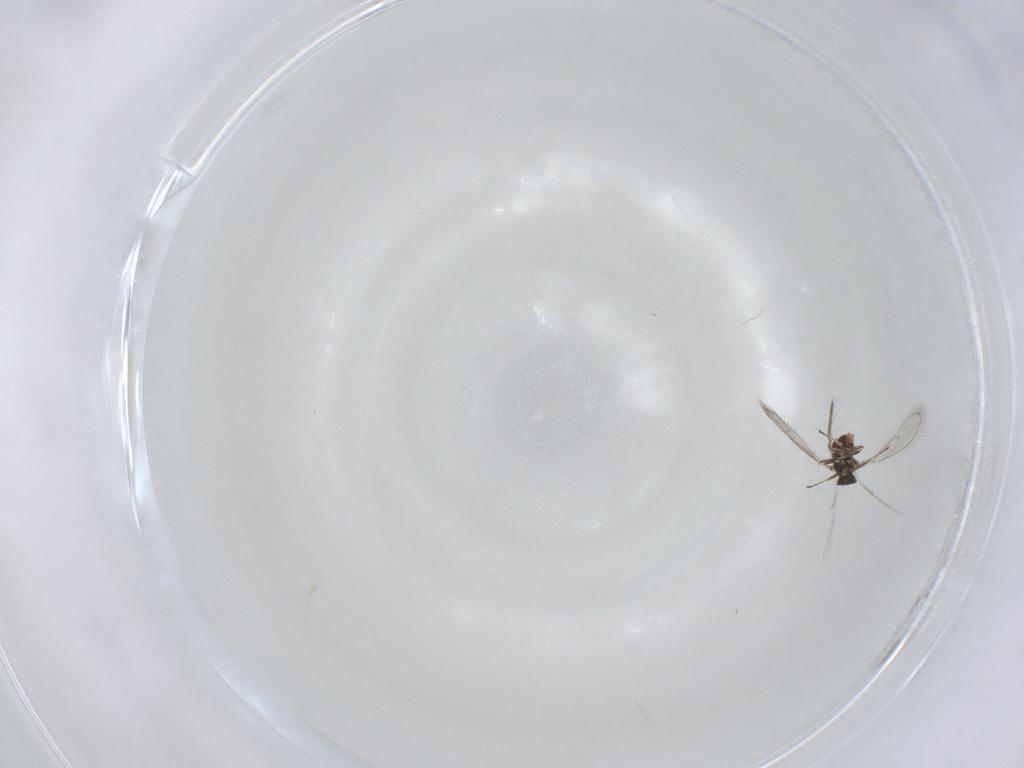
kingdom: Animalia
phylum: Arthropoda
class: Insecta
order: Hymenoptera
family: Eulophidae
